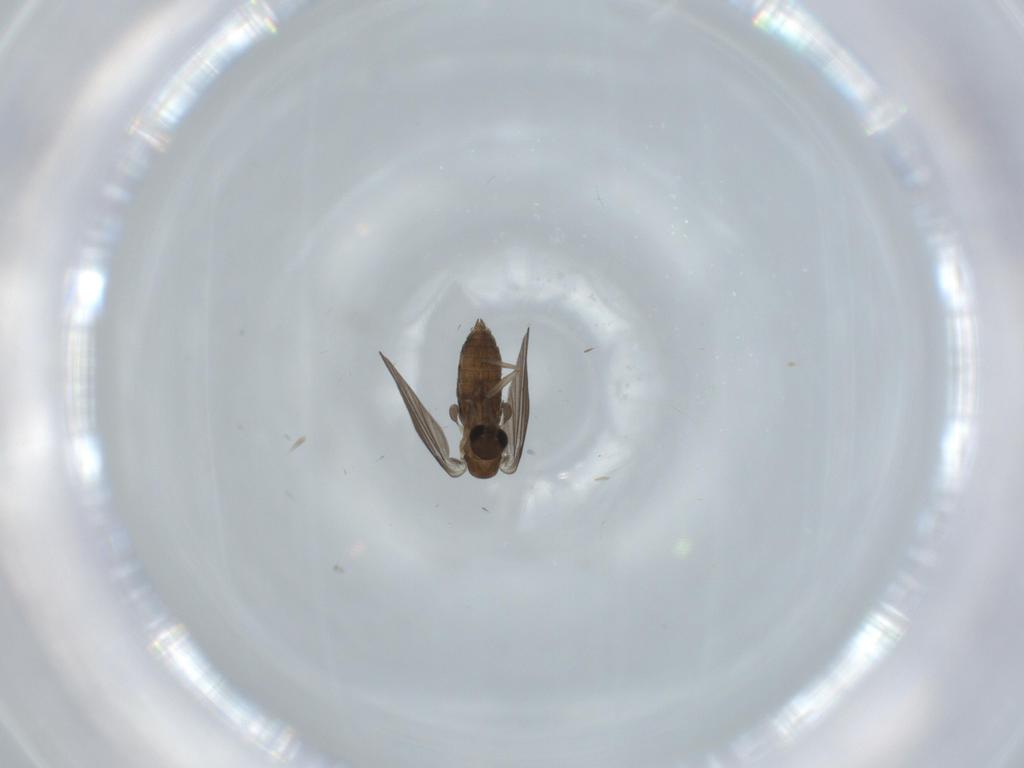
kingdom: Animalia
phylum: Arthropoda
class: Insecta
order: Diptera
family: Psychodidae
